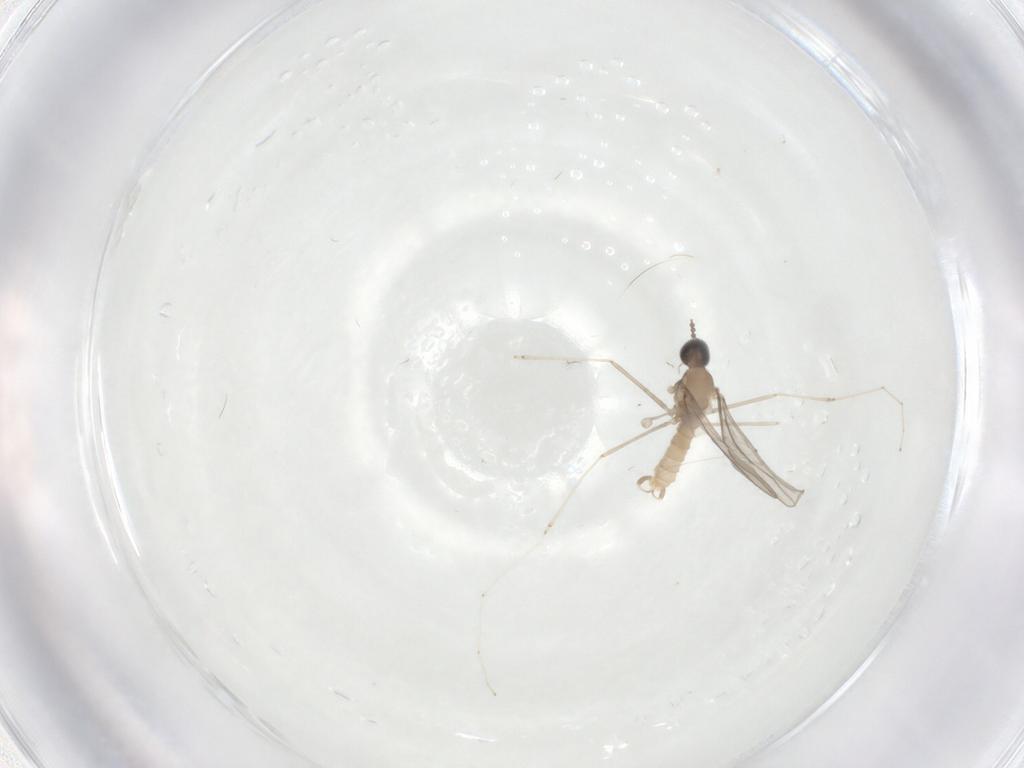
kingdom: Animalia
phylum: Arthropoda
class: Insecta
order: Diptera
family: Cecidomyiidae
